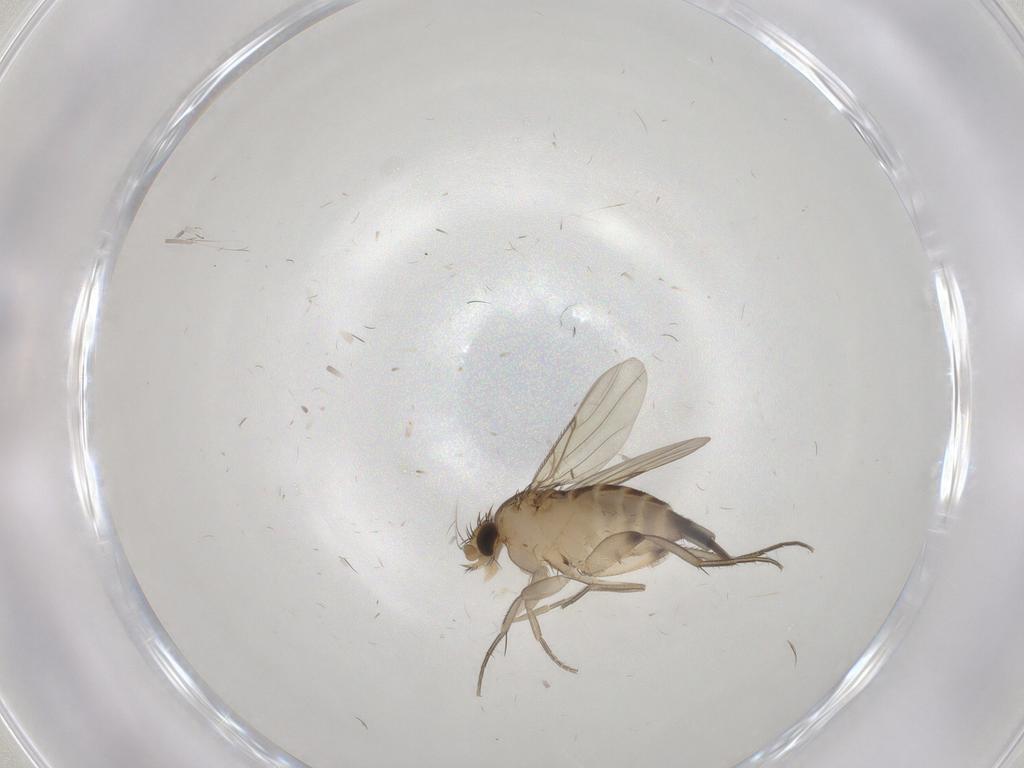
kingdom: Animalia
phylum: Arthropoda
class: Insecta
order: Diptera
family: Phoridae
